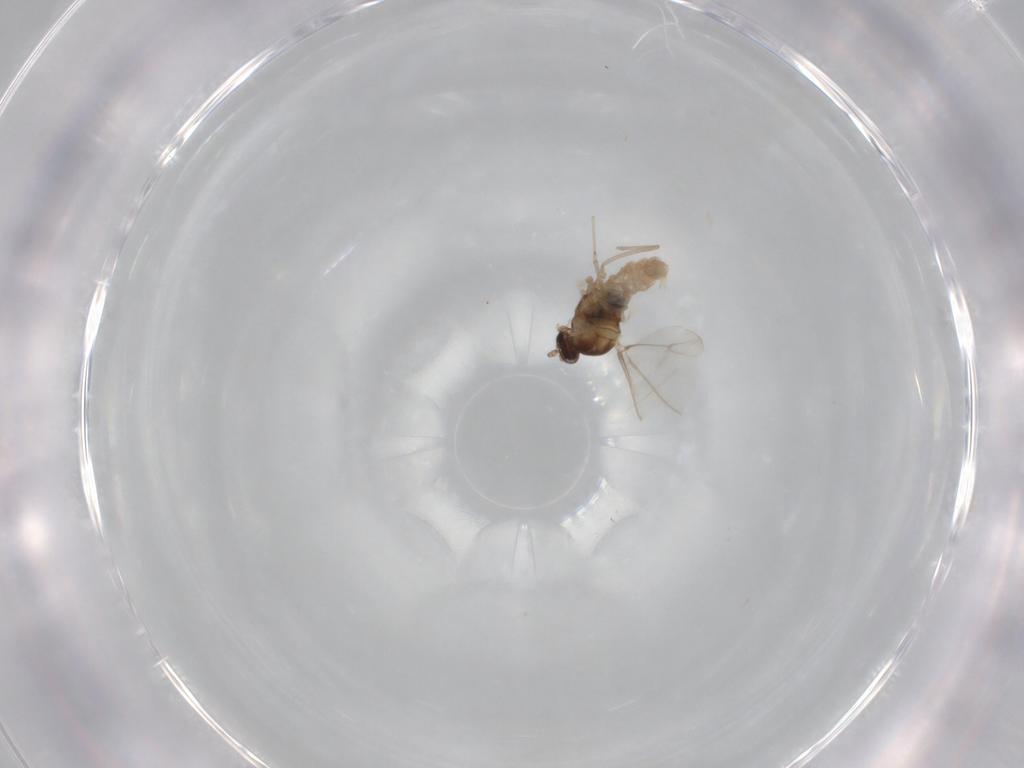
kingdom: Animalia
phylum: Arthropoda
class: Insecta
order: Diptera
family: Cecidomyiidae
